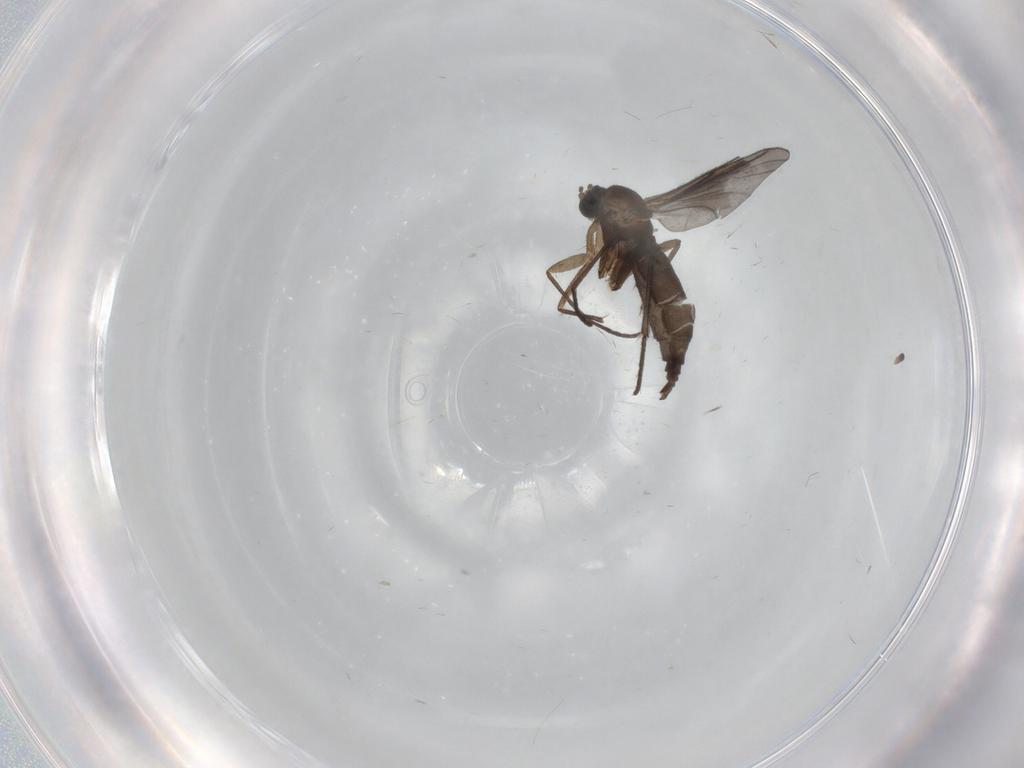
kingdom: Animalia
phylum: Arthropoda
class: Insecta
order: Diptera
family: Sciaridae
